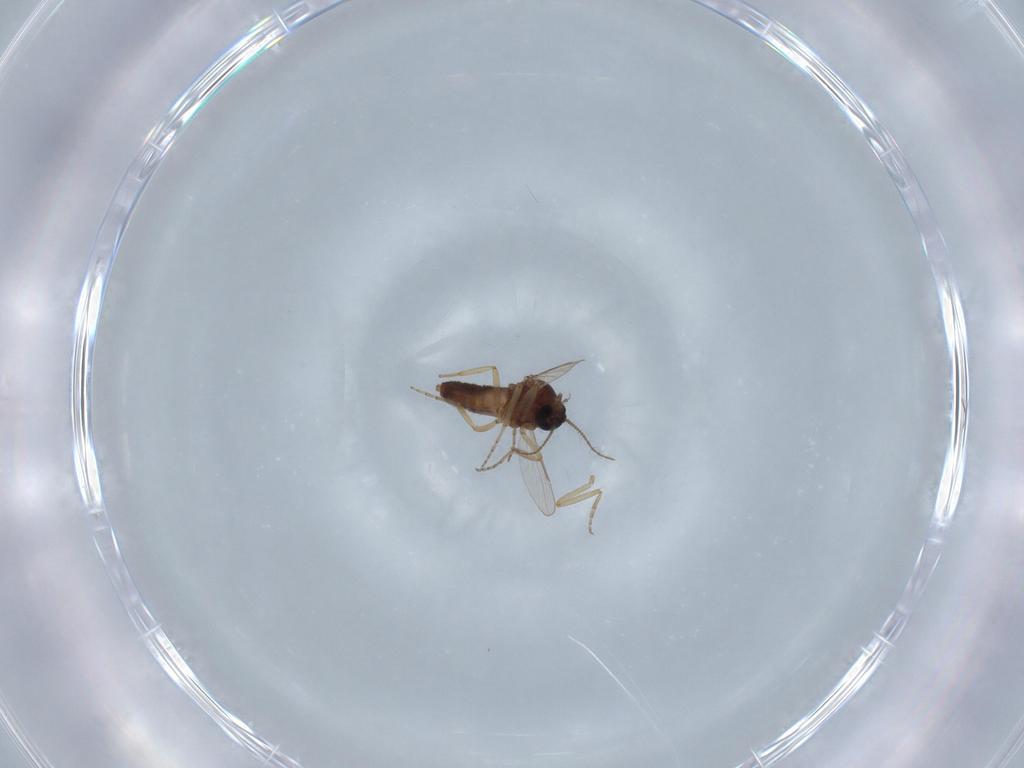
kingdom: Animalia
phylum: Arthropoda
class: Insecta
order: Diptera
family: Ceratopogonidae
